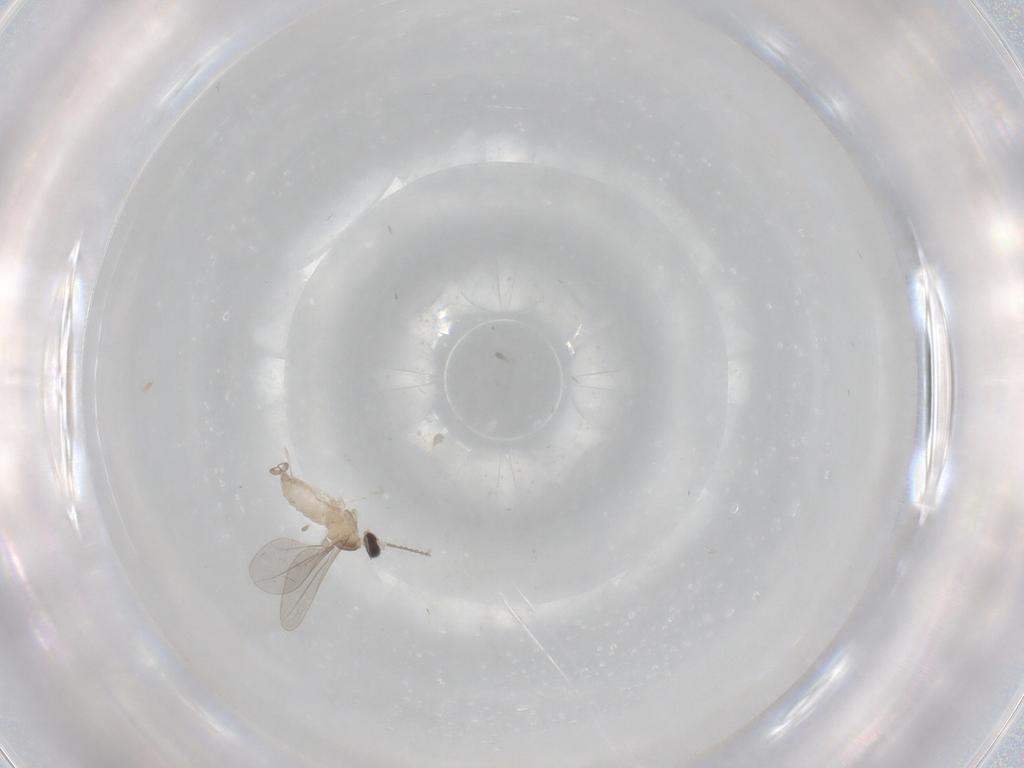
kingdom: Animalia
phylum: Arthropoda
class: Insecta
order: Diptera
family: Cecidomyiidae
